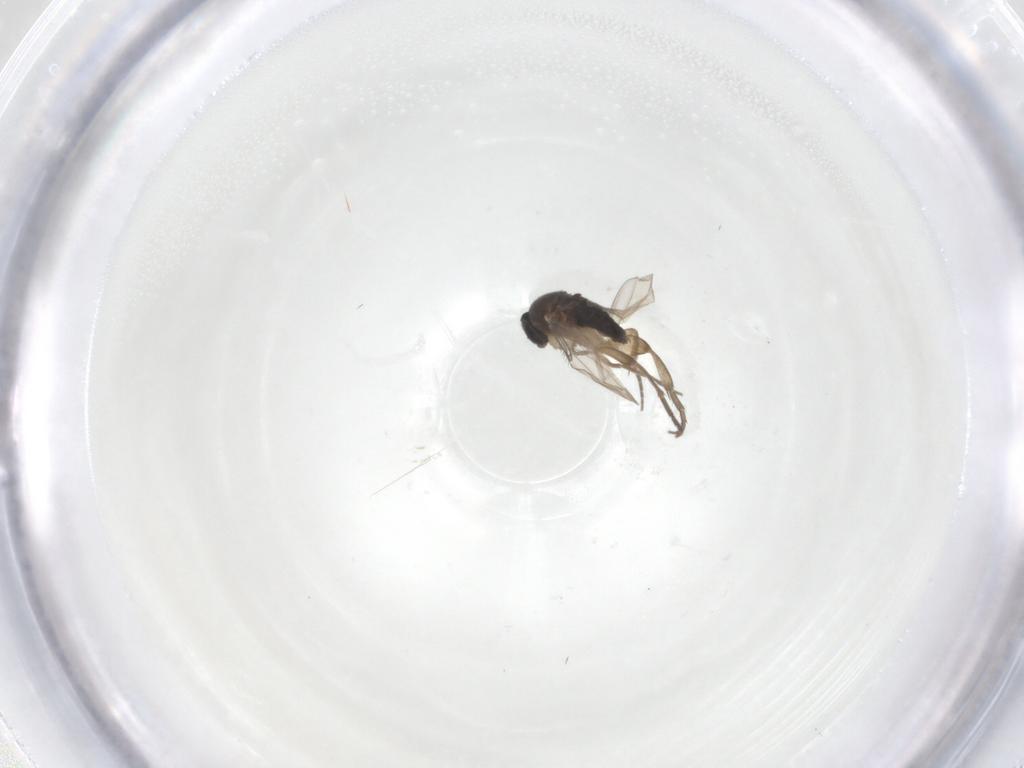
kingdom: Animalia
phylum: Arthropoda
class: Insecta
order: Diptera
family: Phoridae
